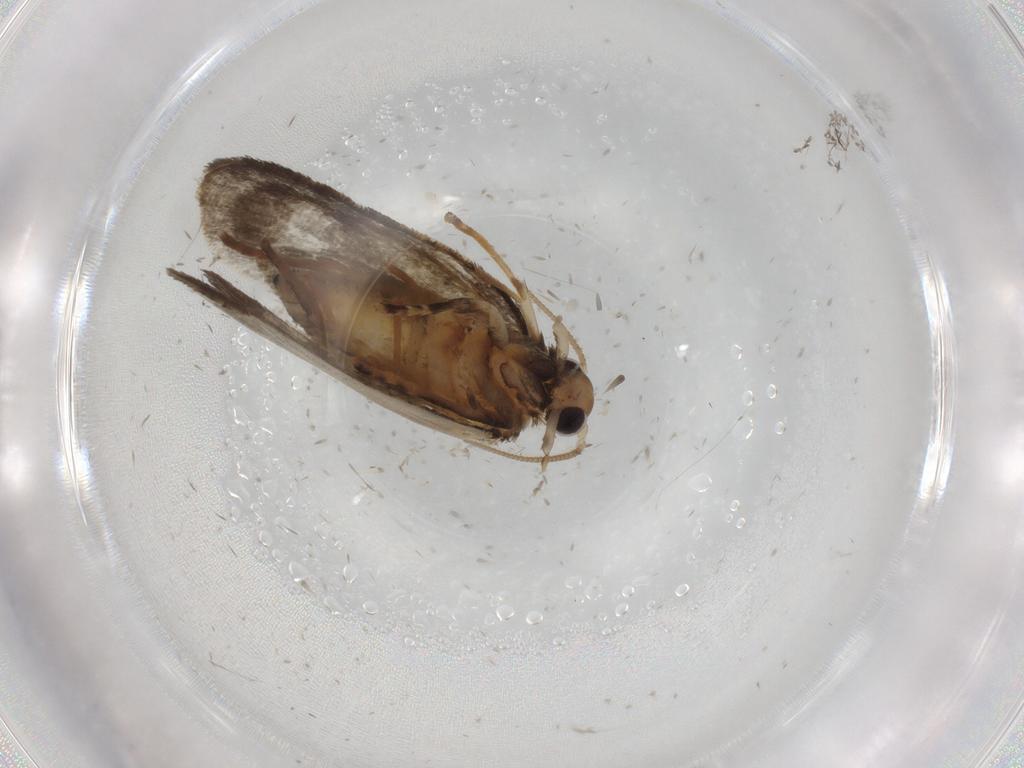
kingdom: Animalia
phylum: Arthropoda
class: Insecta
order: Lepidoptera
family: Psychidae
